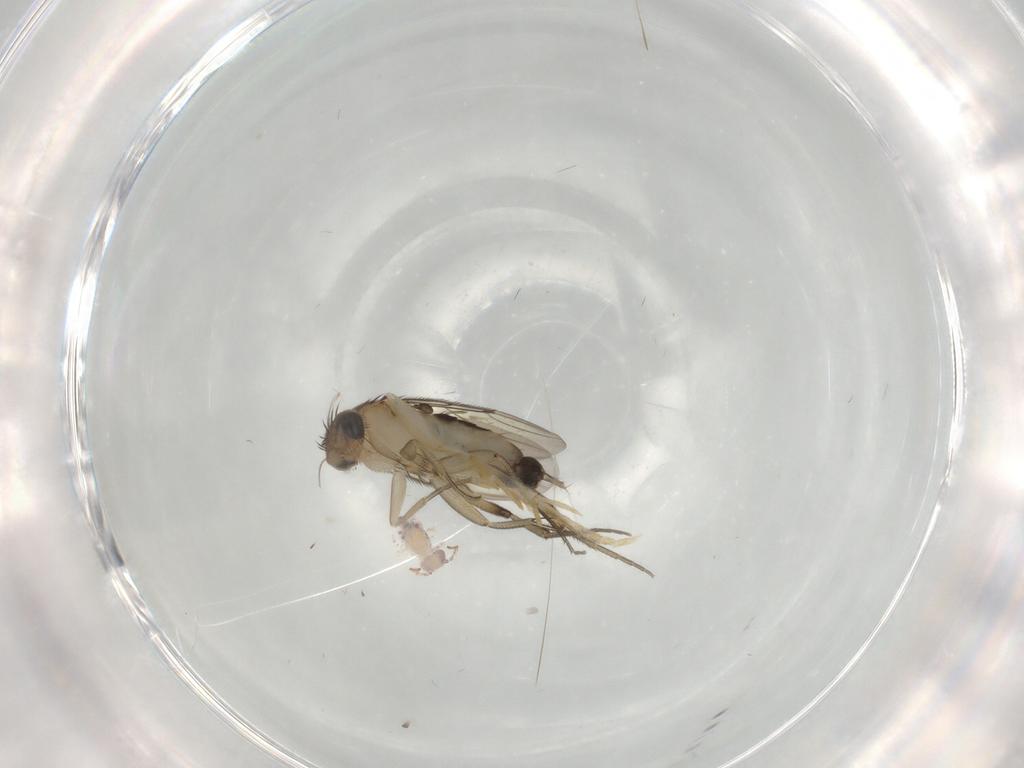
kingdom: Animalia
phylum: Arthropoda
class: Insecta
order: Diptera
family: Phoridae
